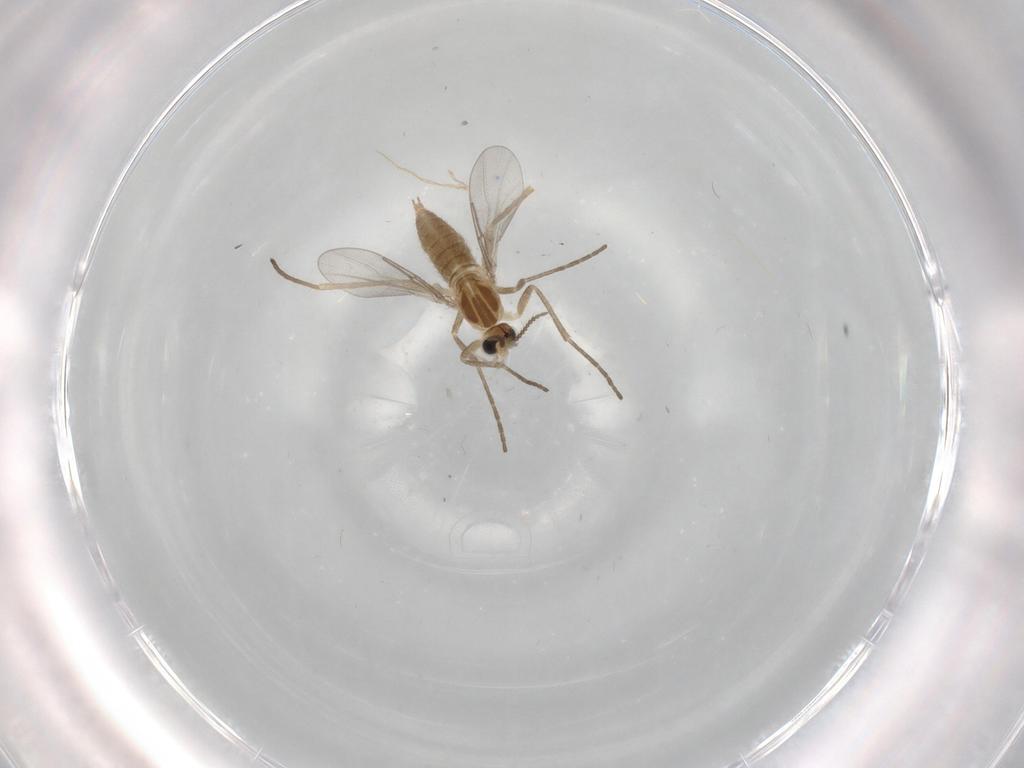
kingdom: Animalia
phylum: Arthropoda
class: Insecta
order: Diptera
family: Cecidomyiidae
